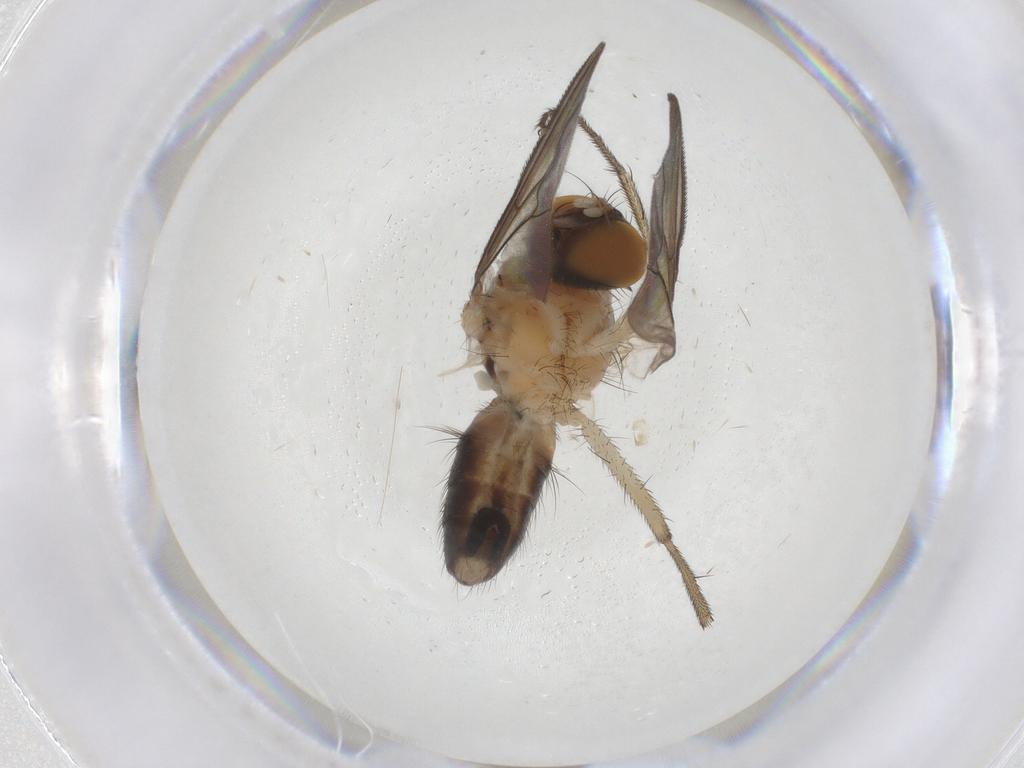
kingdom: Animalia
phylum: Arthropoda
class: Insecta
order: Diptera
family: Muscidae
